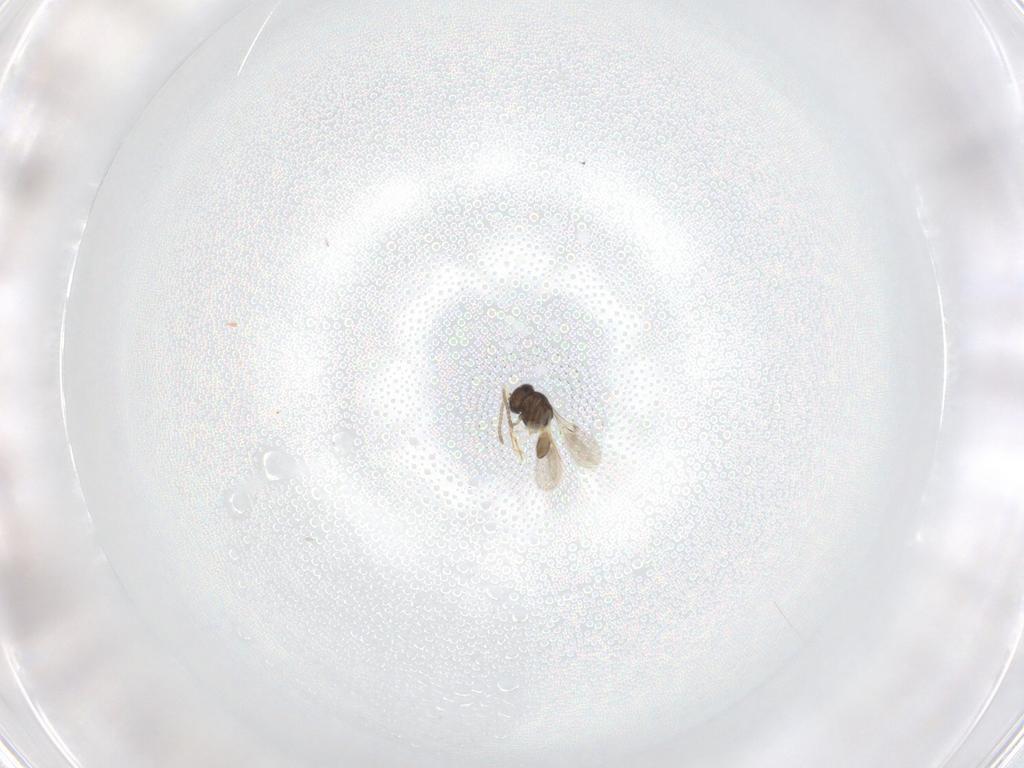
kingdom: Animalia
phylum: Arthropoda
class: Insecta
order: Hymenoptera
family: Scelionidae
